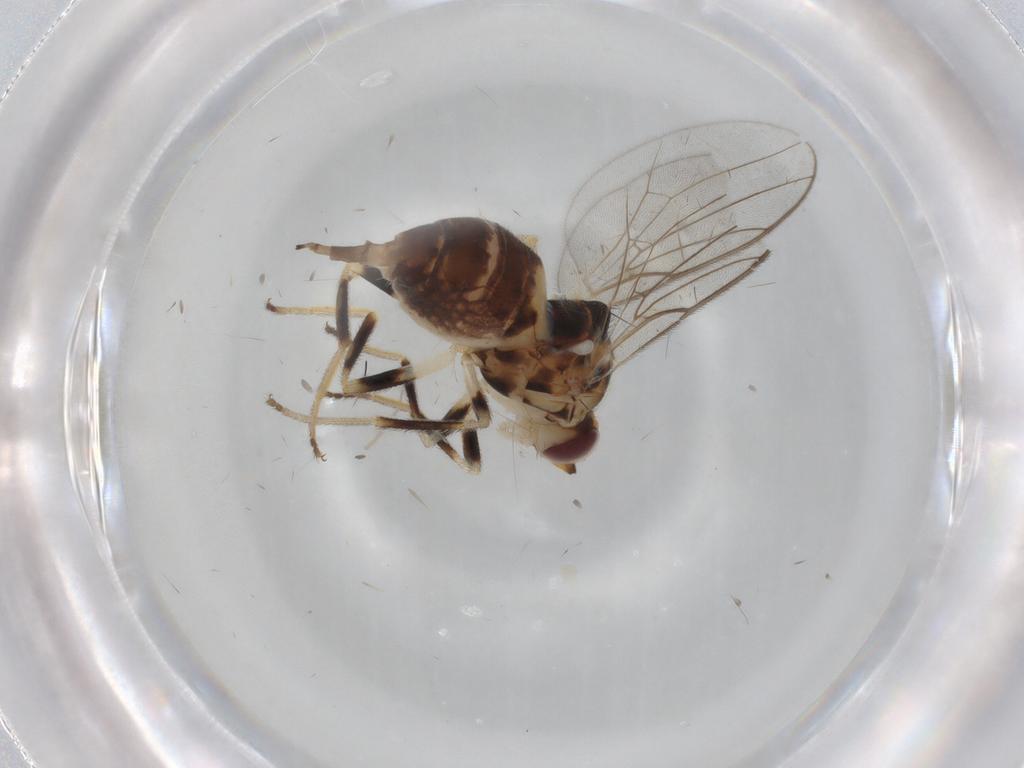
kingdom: Animalia
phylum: Arthropoda
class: Insecta
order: Diptera
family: Chloropidae
